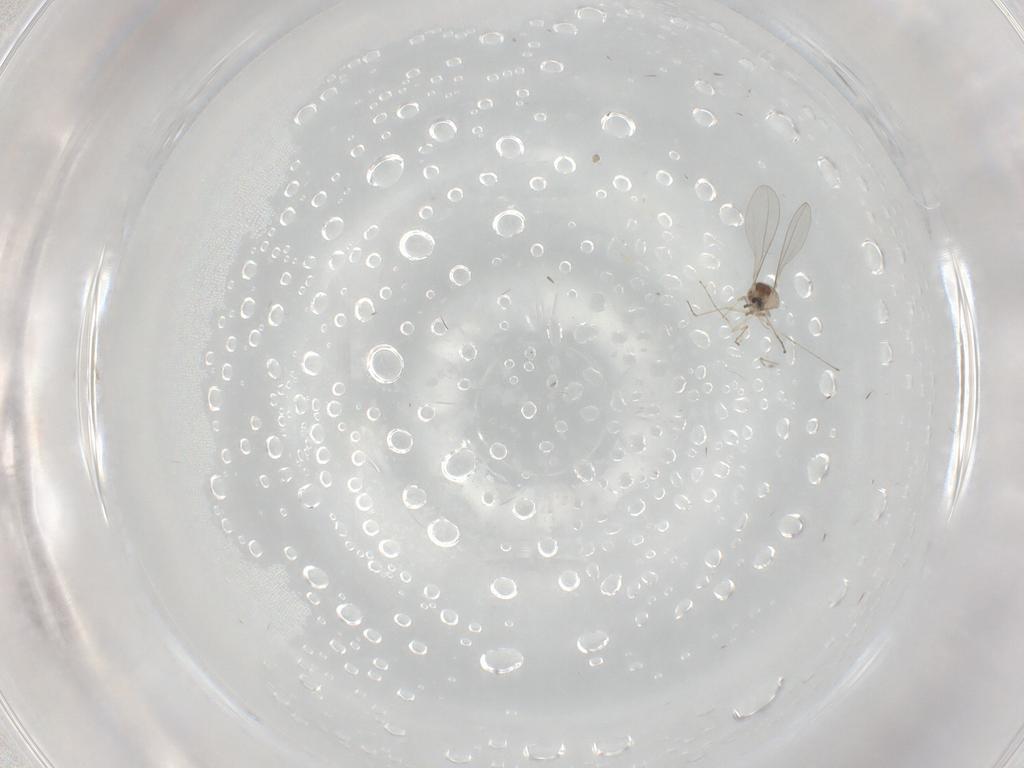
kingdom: Animalia
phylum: Arthropoda
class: Insecta
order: Diptera
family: Cecidomyiidae
